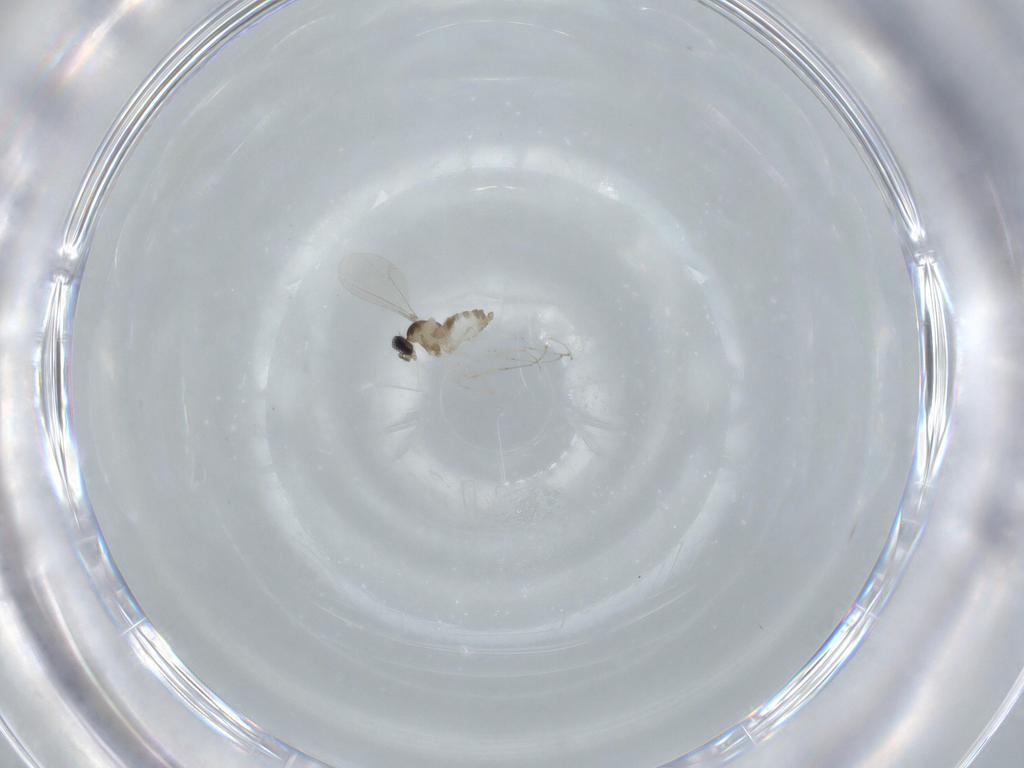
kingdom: Animalia
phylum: Arthropoda
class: Insecta
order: Diptera
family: Cecidomyiidae
